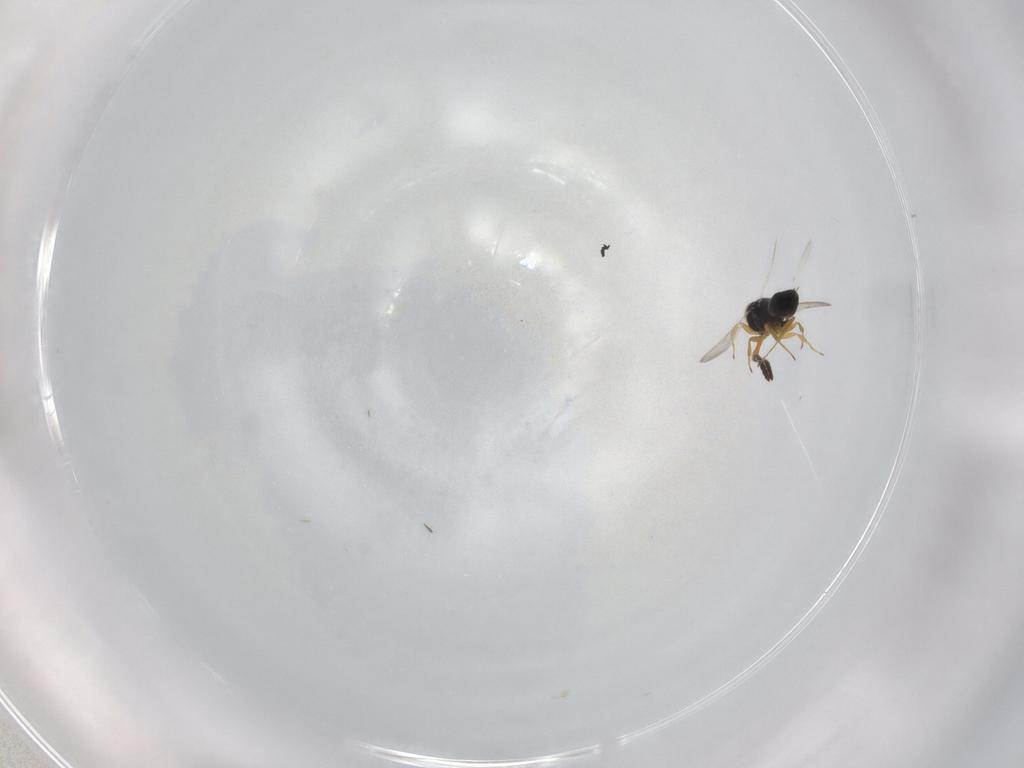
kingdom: Animalia
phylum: Arthropoda
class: Insecta
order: Hymenoptera
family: Scelionidae
